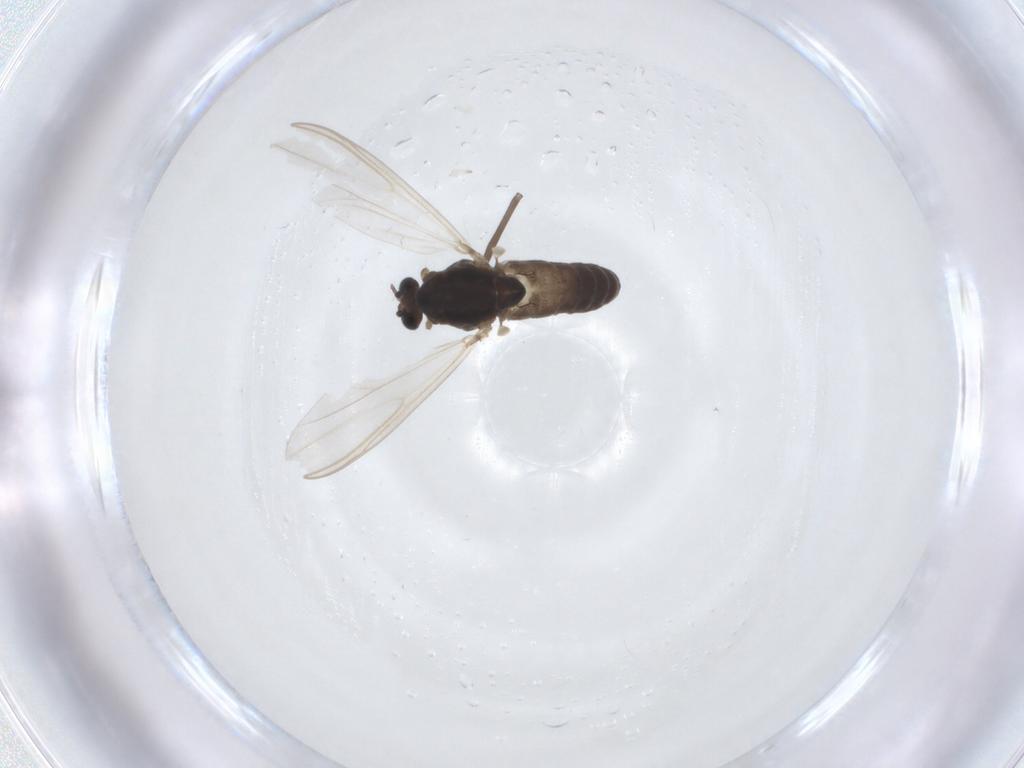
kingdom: Animalia
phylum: Arthropoda
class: Insecta
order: Diptera
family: Chironomidae
